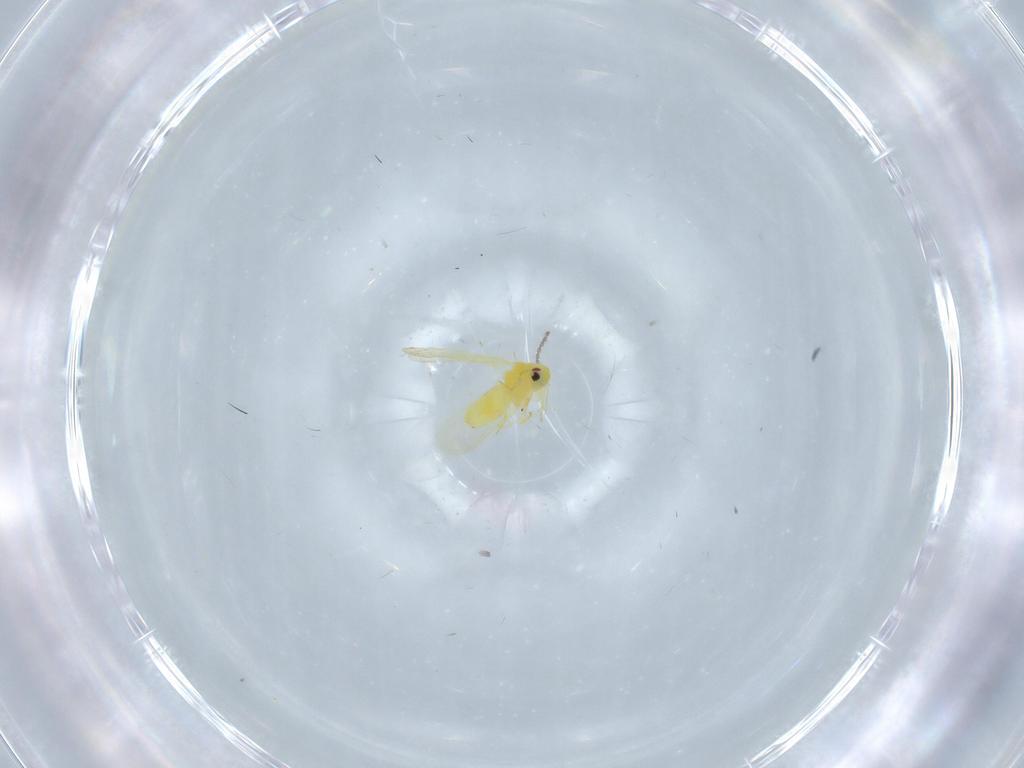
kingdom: Animalia
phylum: Arthropoda
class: Insecta
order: Hemiptera
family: Aleyrodidae
